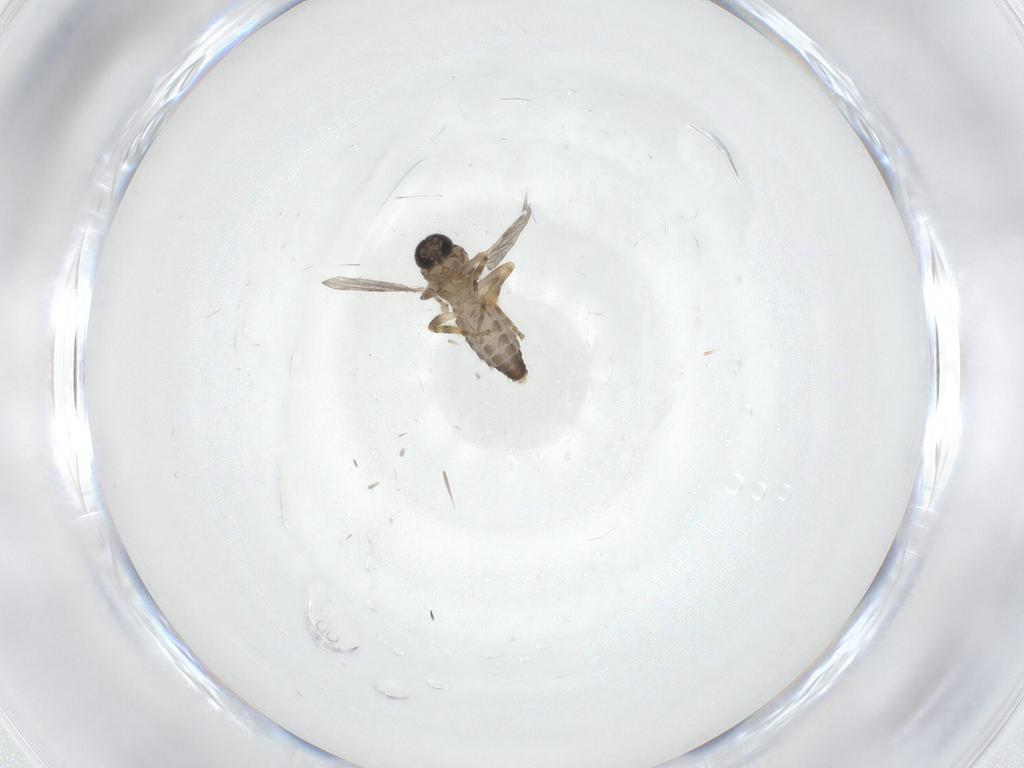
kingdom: Animalia
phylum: Arthropoda
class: Insecta
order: Diptera
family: Ceratopogonidae
